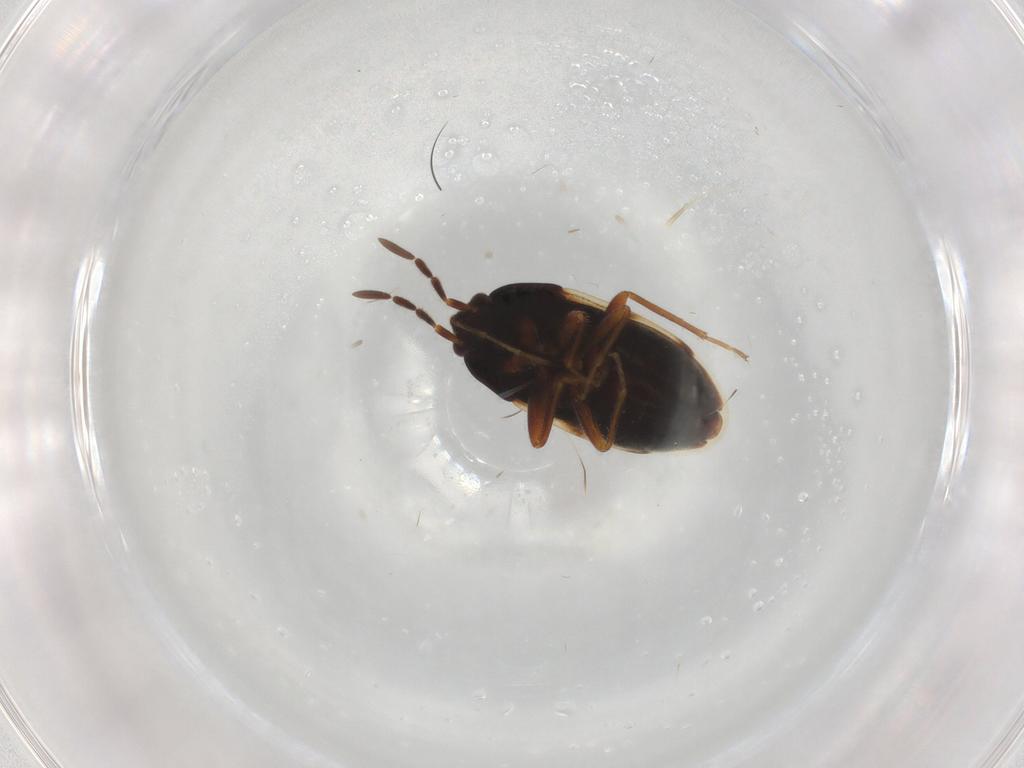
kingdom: Animalia
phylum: Arthropoda
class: Insecta
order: Hemiptera
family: Rhyparochromidae
